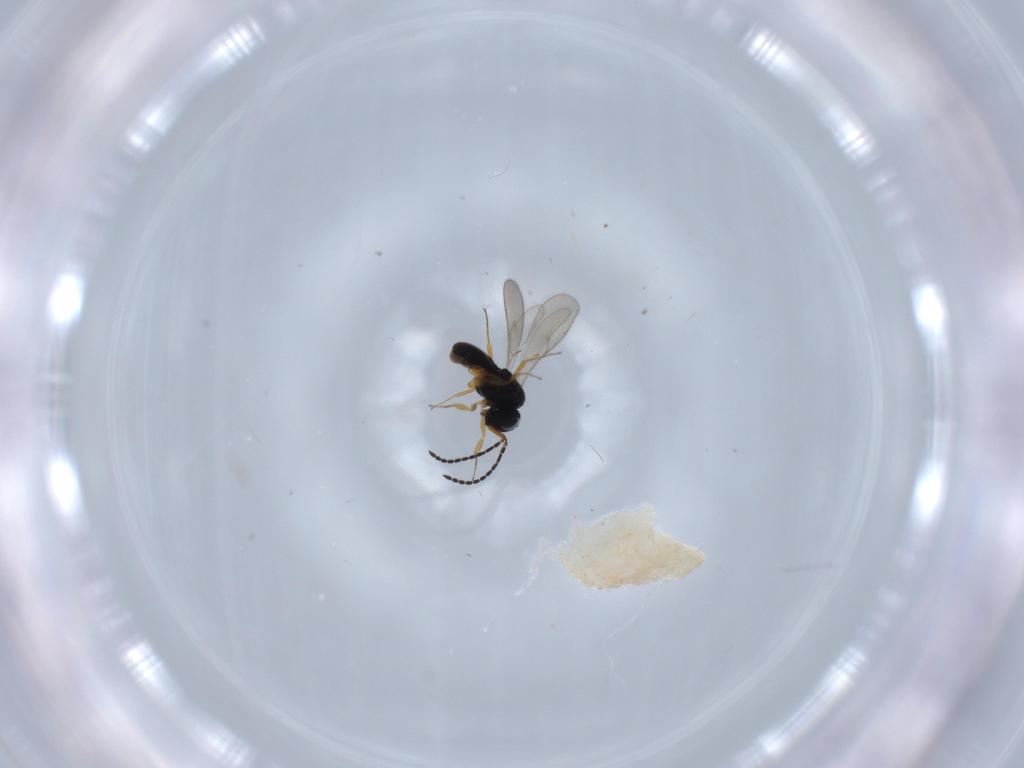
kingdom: Animalia
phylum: Arthropoda
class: Insecta
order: Hymenoptera
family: Scelionidae
